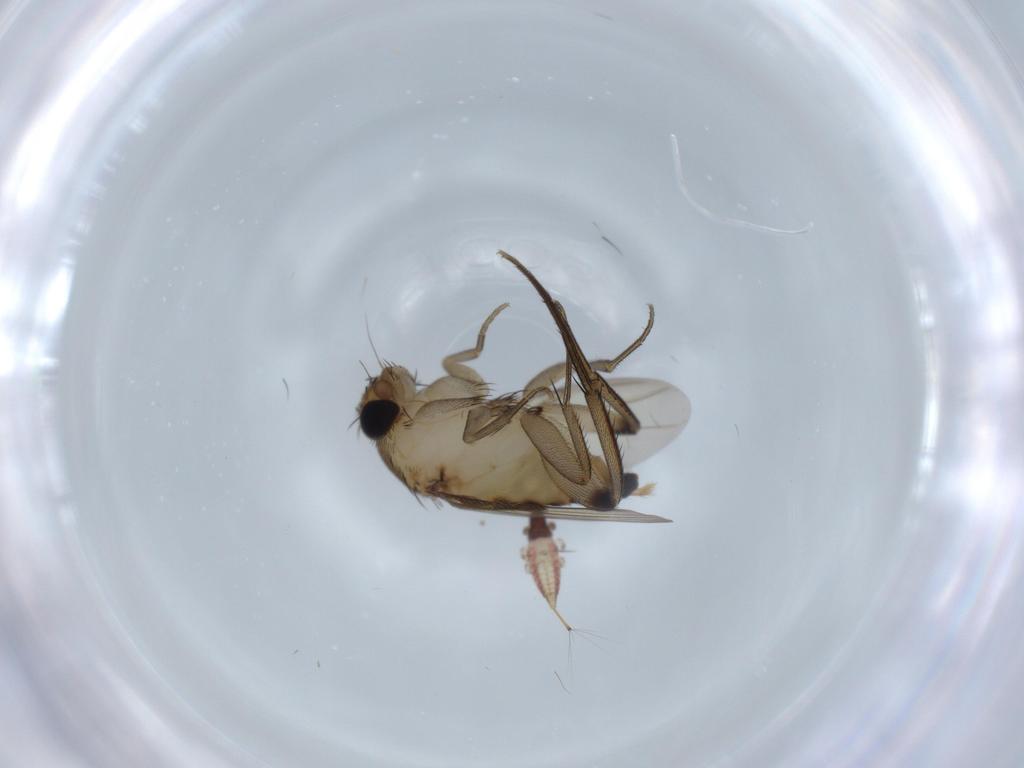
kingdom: Animalia
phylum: Arthropoda
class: Insecta
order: Diptera
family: Phoridae
